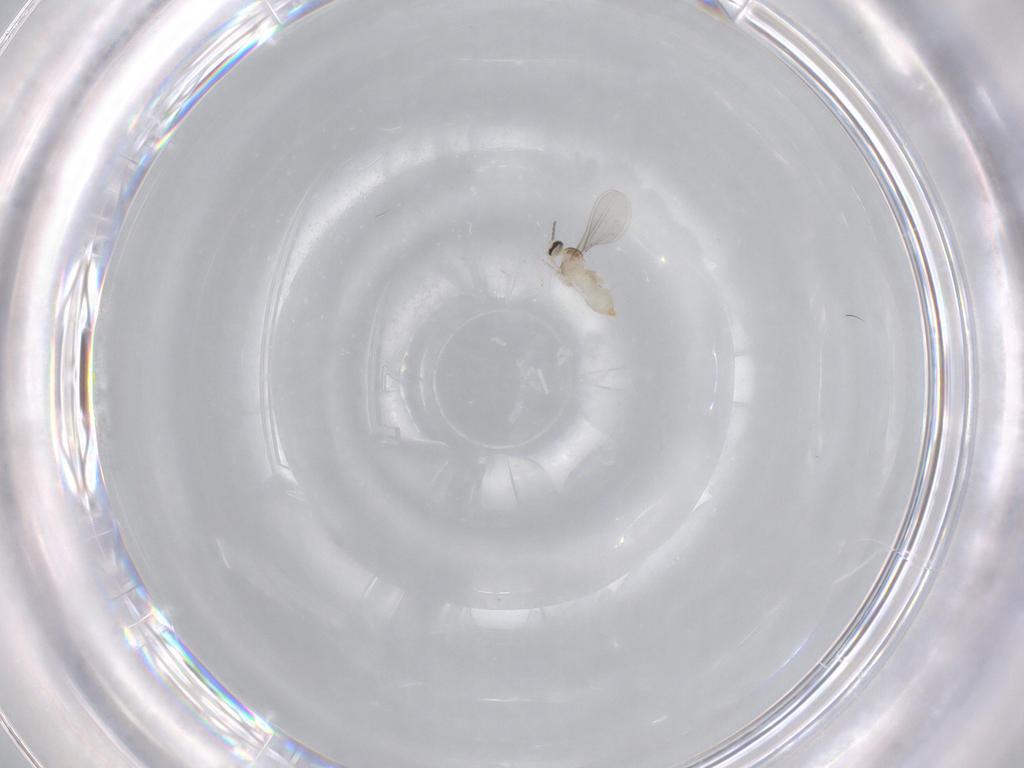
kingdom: Animalia
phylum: Arthropoda
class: Insecta
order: Diptera
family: Cecidomyiidae
